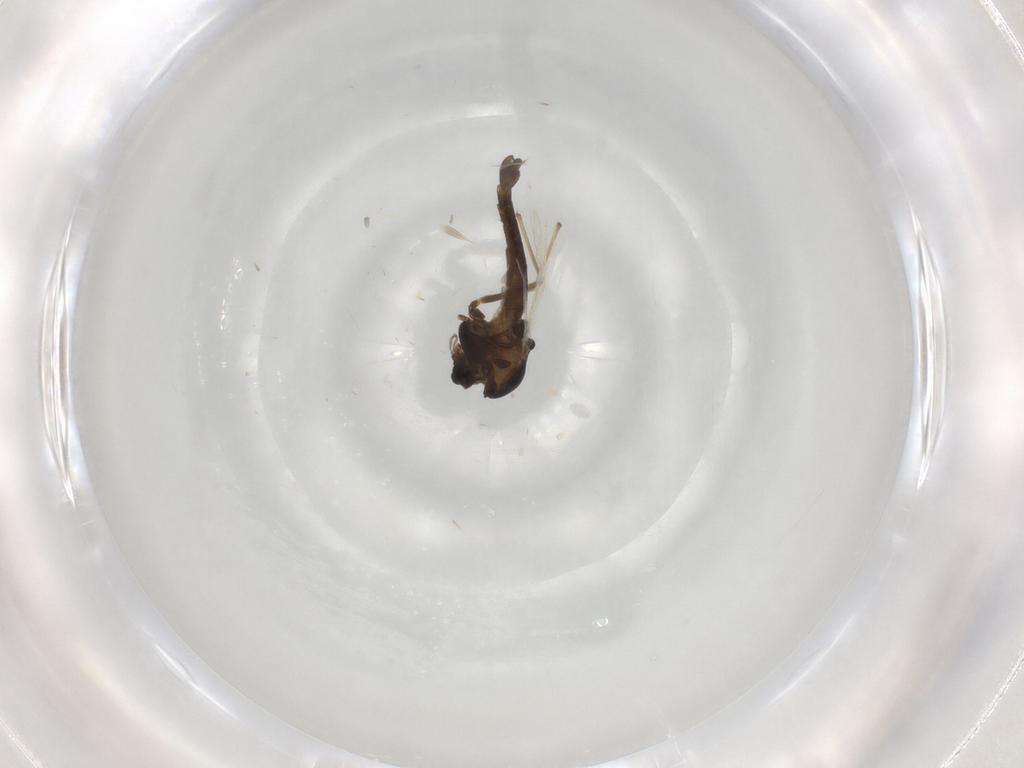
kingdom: Animalia
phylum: Arthropoda
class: Insecta
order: Diptera
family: Chironomidae
